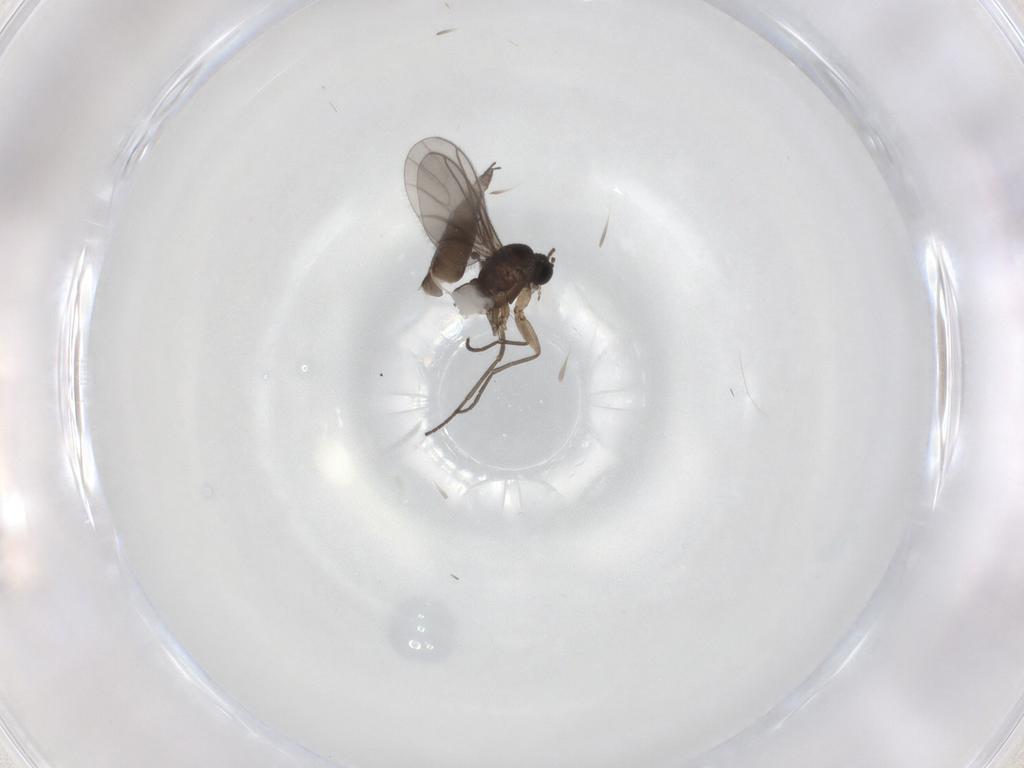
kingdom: Animalia
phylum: Arthropoda
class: Insecta
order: Diptera
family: Sciaridae
